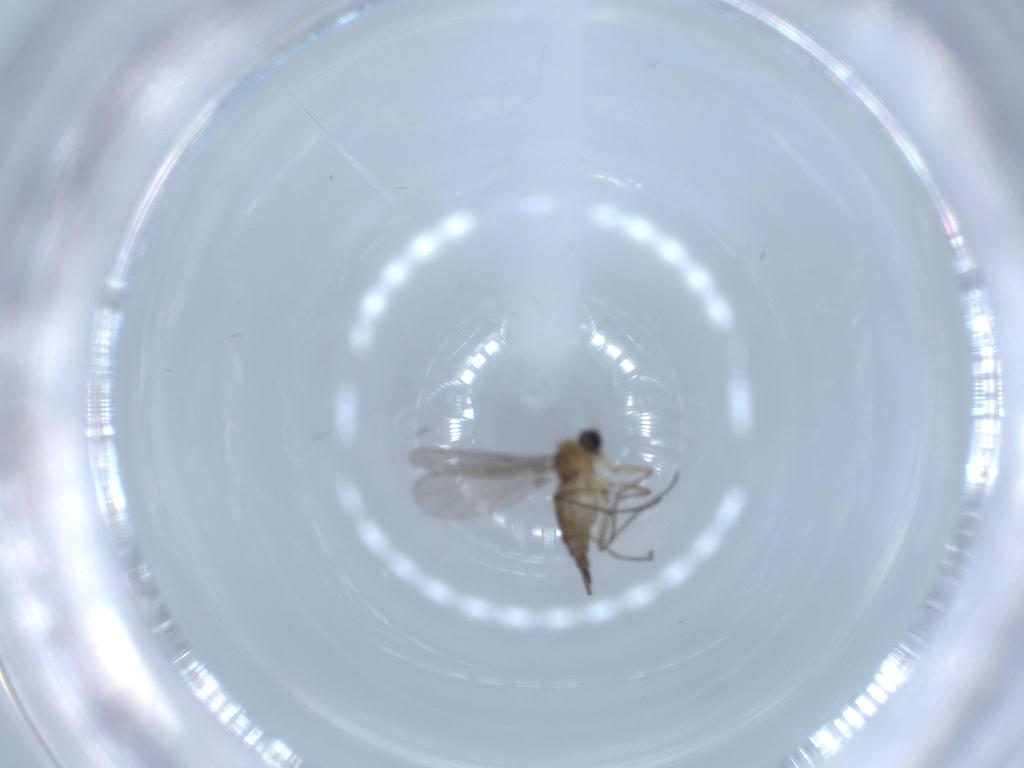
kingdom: Animalia
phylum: Arthropoda
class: Insecta
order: Diptera
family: Sciaridae
